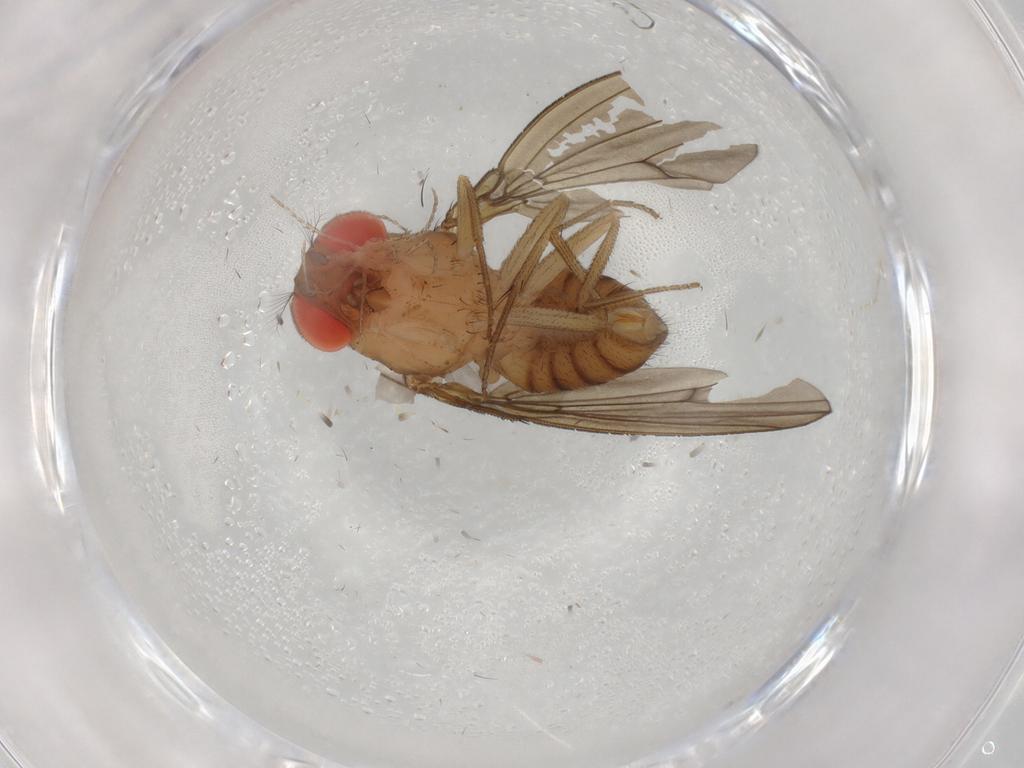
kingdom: Animalia
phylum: Arthropoda
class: Insecta
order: Diptera
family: Drosophilidae
